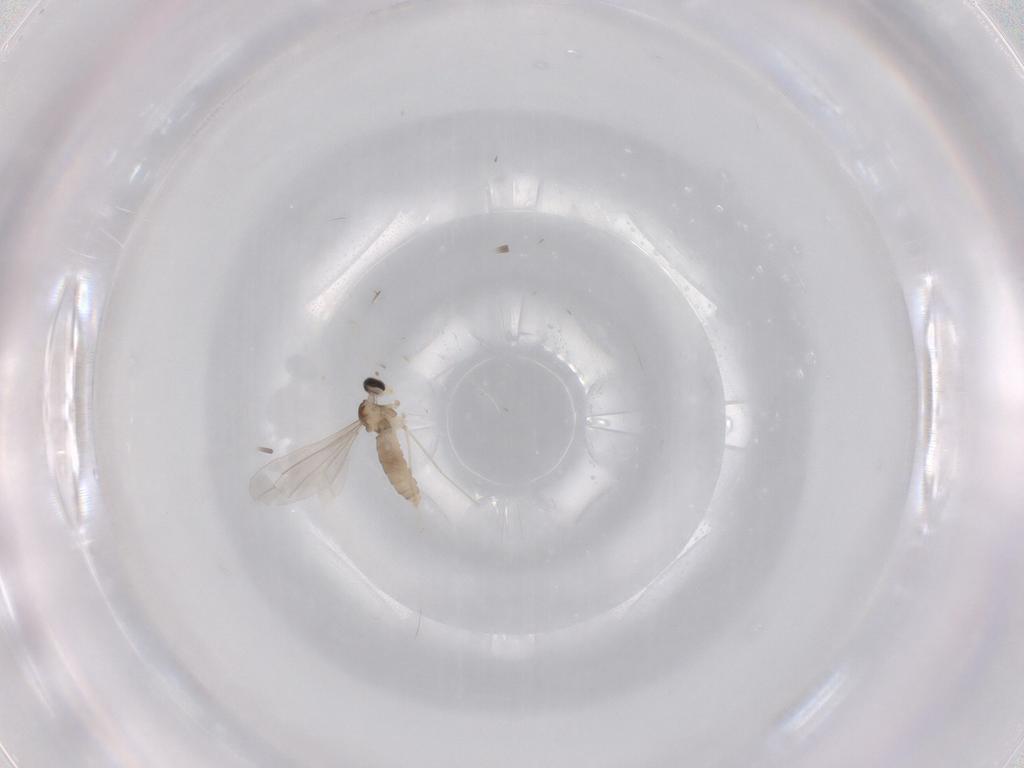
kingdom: Animalia
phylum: Arthropoda
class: Insecta
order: Diptera
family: Cecidomyiidae
